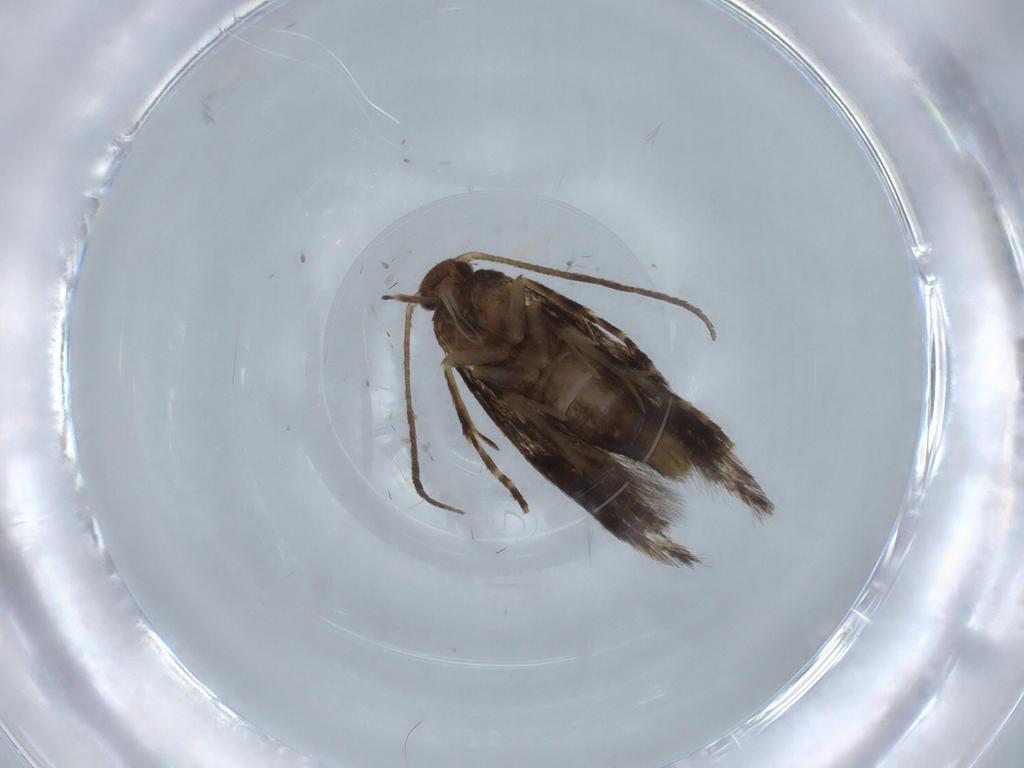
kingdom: Animalia
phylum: Arthropoda
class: Insecta
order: Lepidoptera
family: Elachistidae
